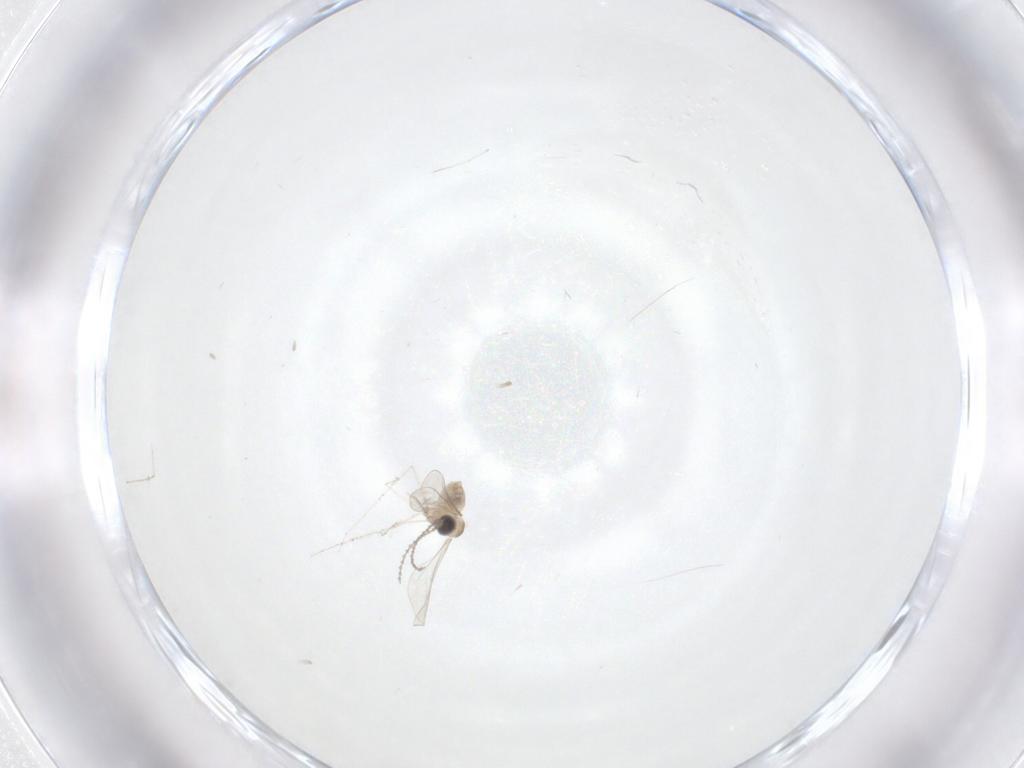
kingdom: Animalia
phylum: Arthropoda
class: Insecta
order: Diptera
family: Cecidomyiidae
